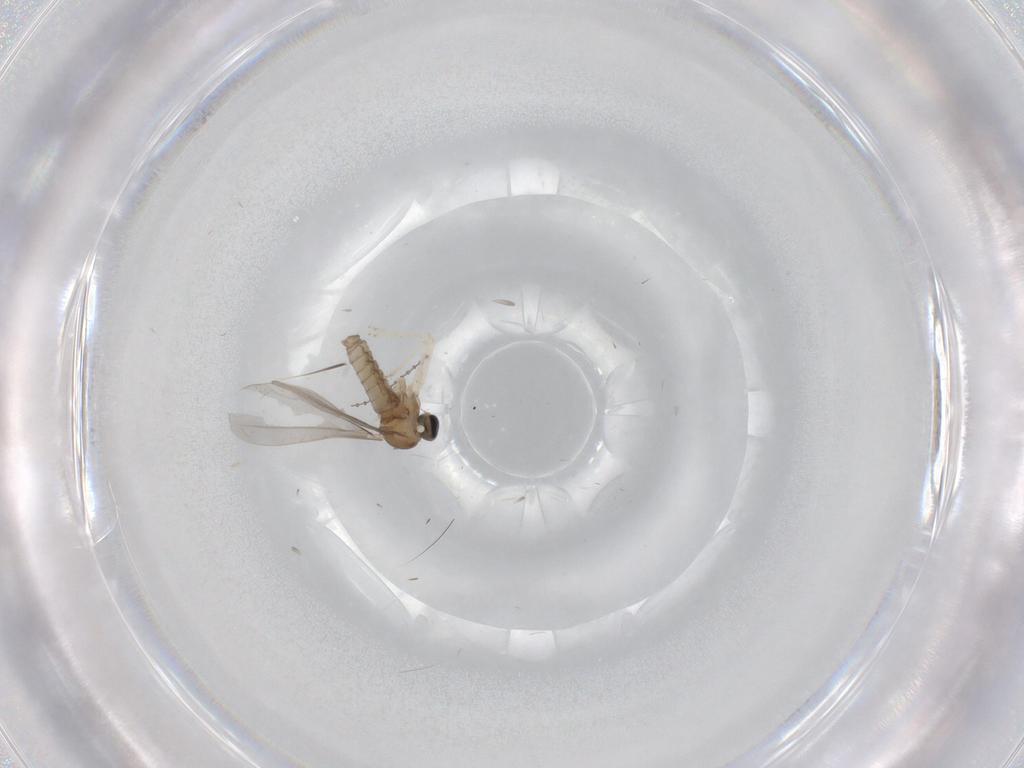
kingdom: Animalia
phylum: Arthropoda
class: Insecta
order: Diptera
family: Cecidomyiidae
